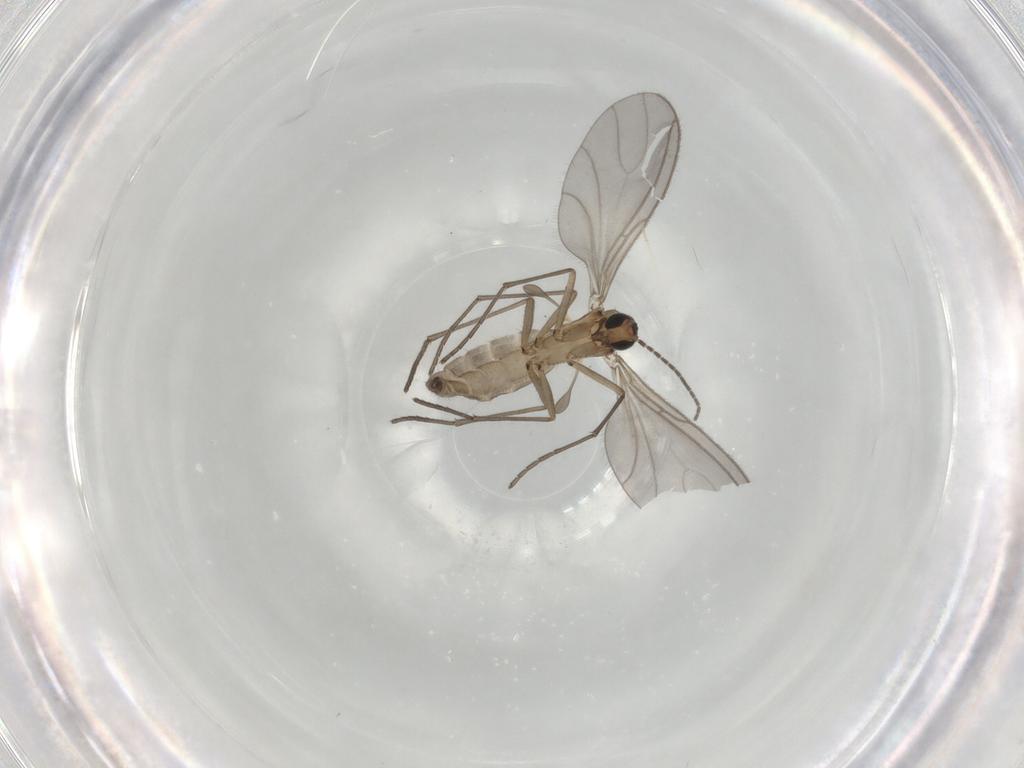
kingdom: Animalia
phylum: Arthropoda
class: Insecta
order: Diptera
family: Sciaridae
